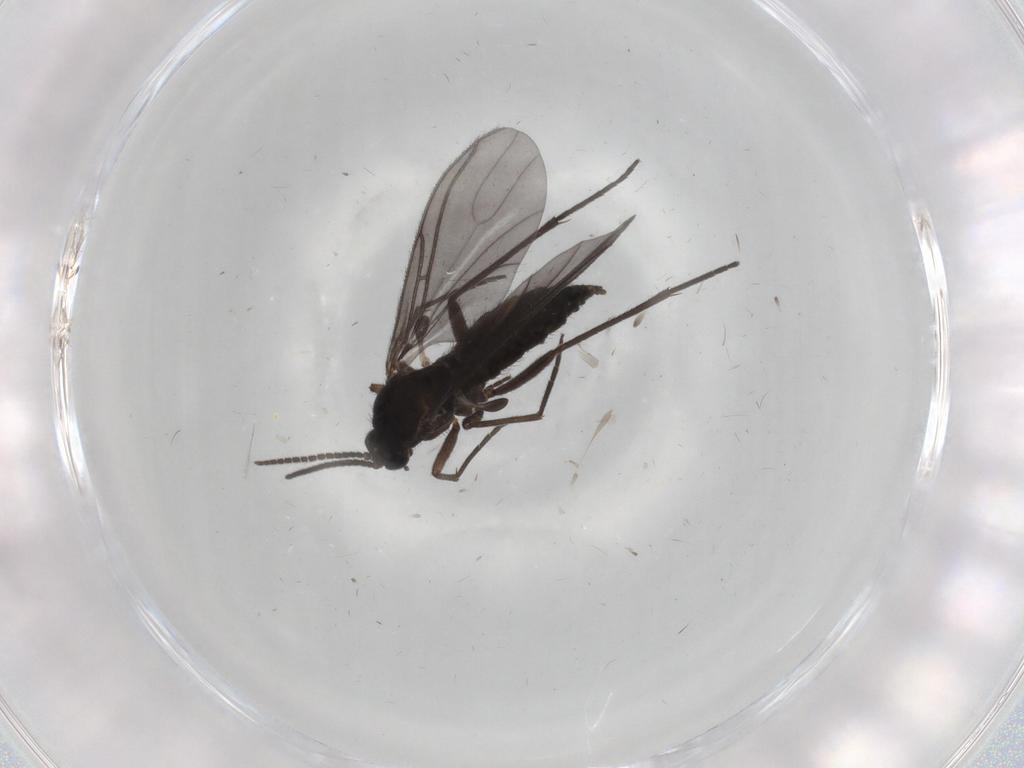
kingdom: Animalia
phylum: Arthropoda
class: Insecta
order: Diptera
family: Sciaridae
